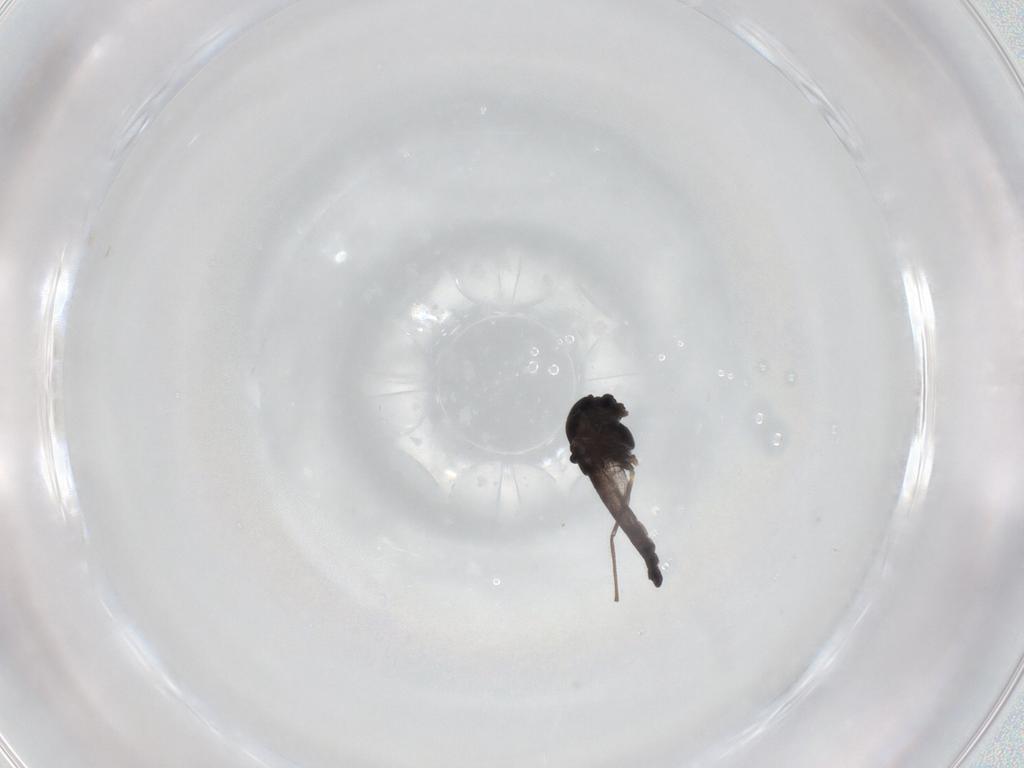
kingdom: Animalia
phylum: Arthropoda
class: Insecta
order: Diptera
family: Chironomidae
